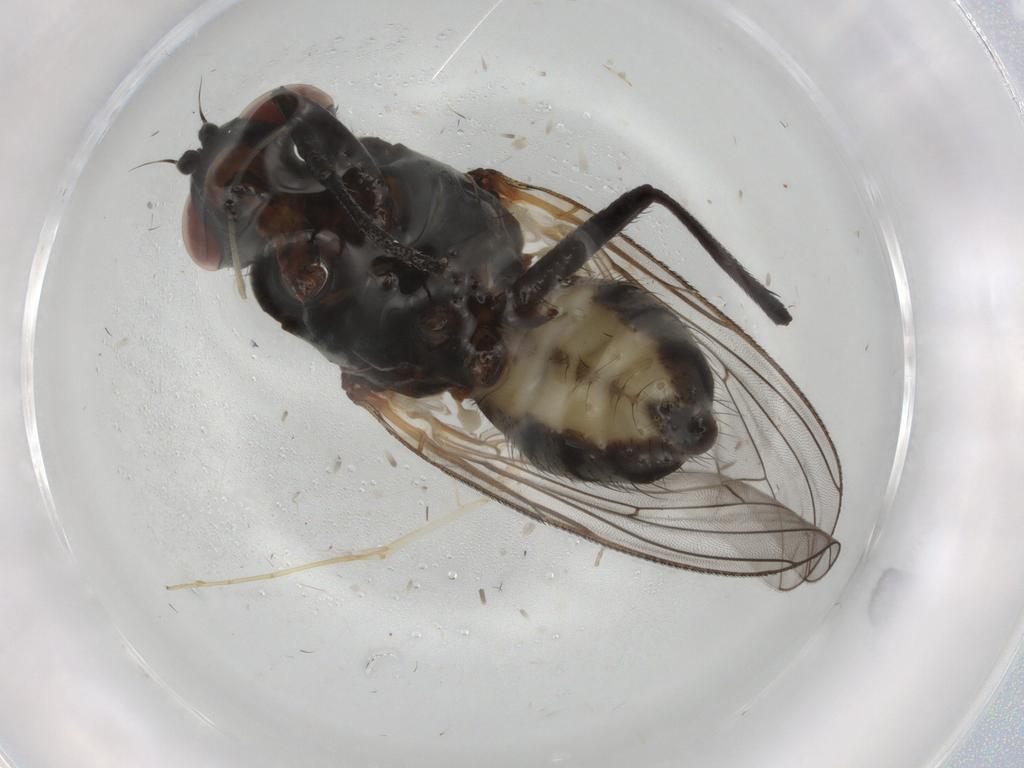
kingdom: Animalia
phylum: Arthropoda
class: Insecta
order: Diptera
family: Anthomyiidae
